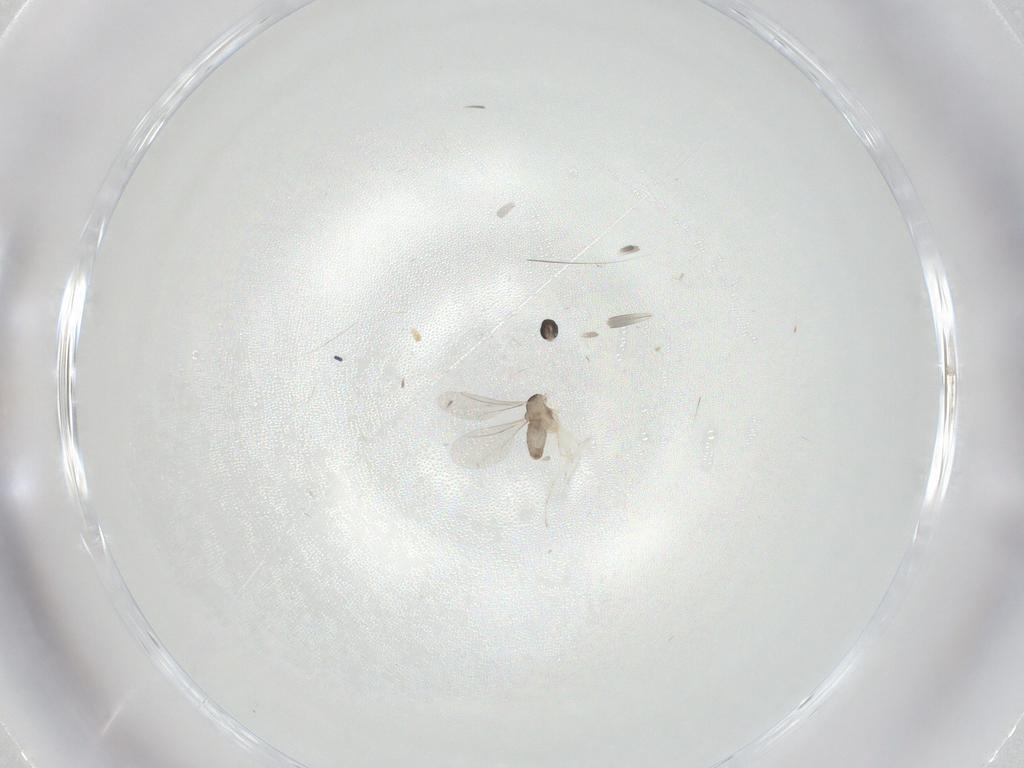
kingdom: Animalia
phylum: Arthropoda
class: Insecta
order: Diptera
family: Cecidomyiidae
